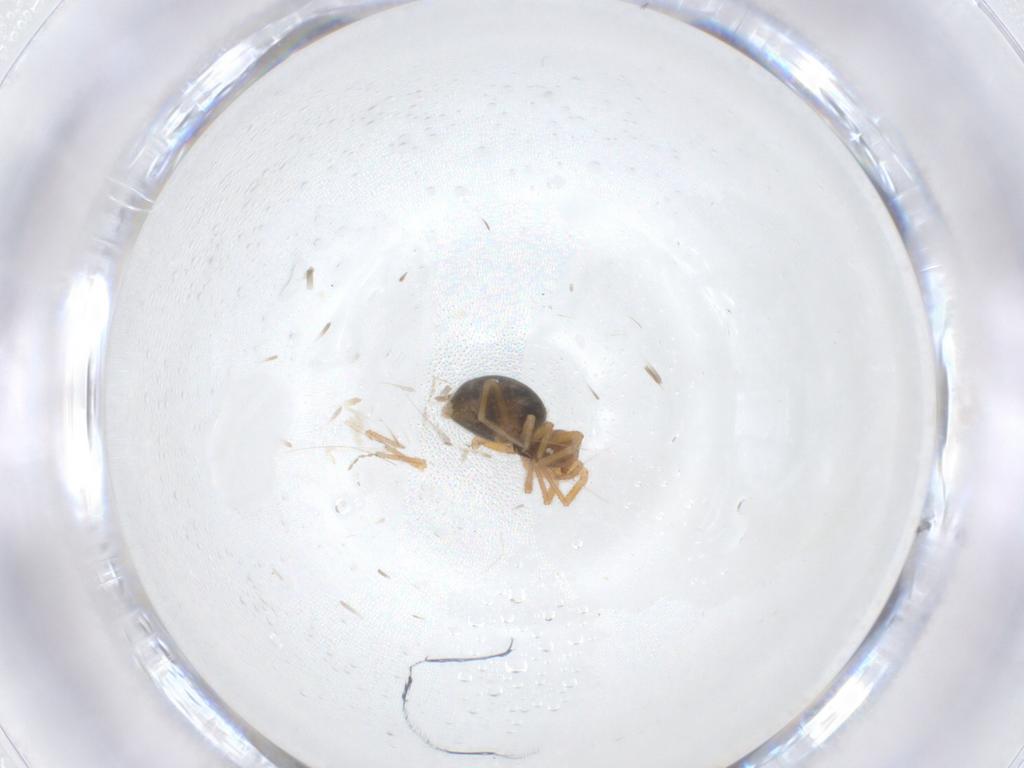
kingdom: Animalia
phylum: Arthropoda
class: Arachnida
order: Araneae
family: Linyphiidae
